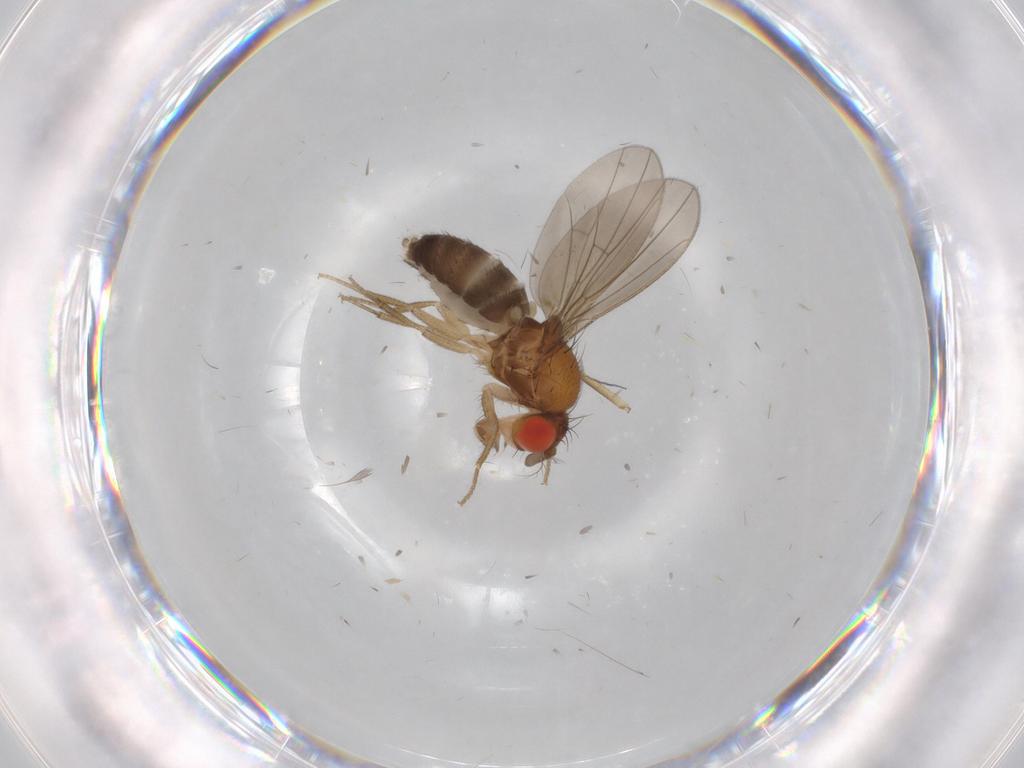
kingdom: Animalia
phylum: Arthropoda
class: Insecta
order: Diptera
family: Drosophilidae
